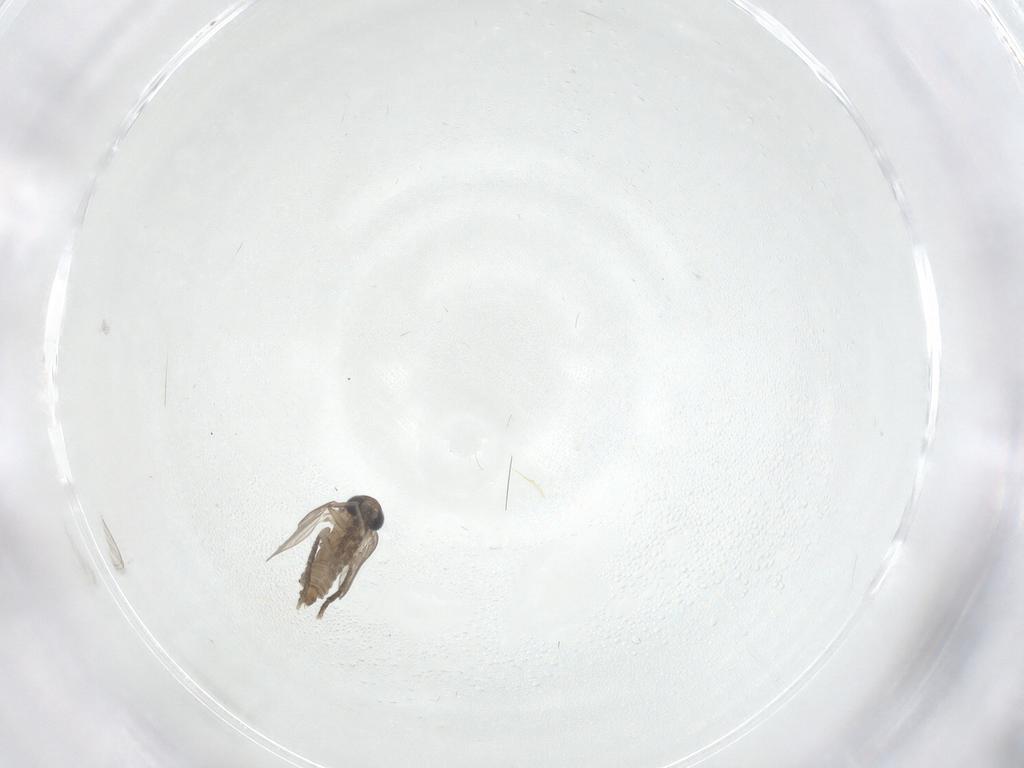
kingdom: Animalia
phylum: Arthropoda
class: Insecta
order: Diptera
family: Psychodidae
